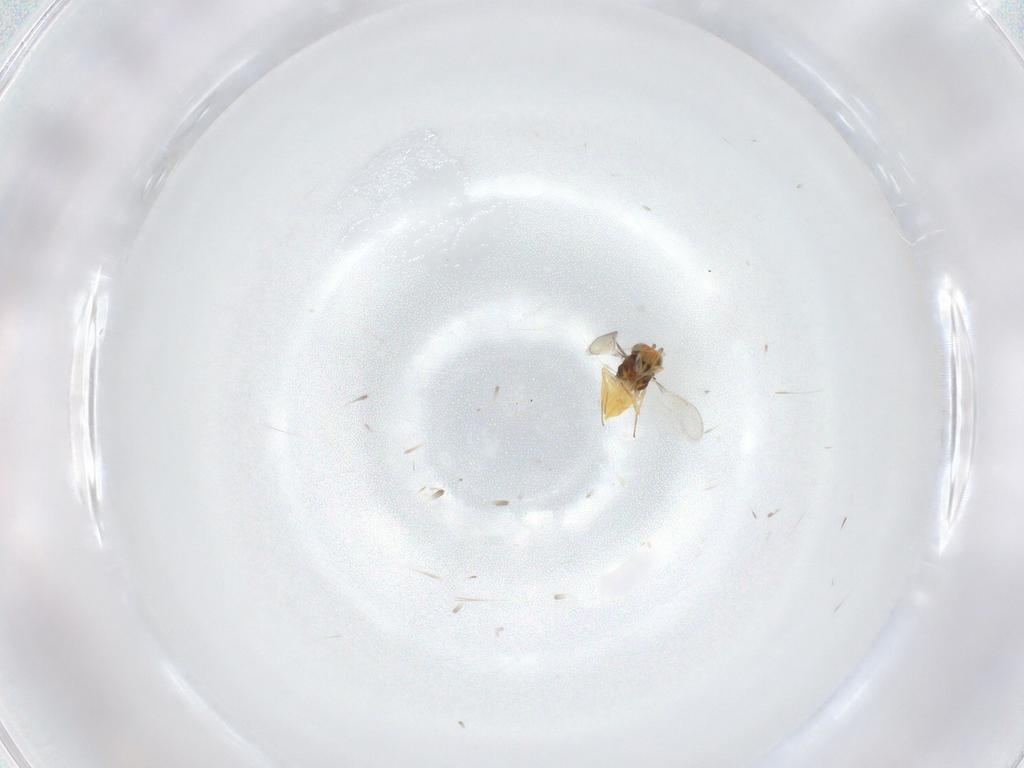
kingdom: Animalia
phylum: Arthropoda
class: Insecta
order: Hymenoptera
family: Aphelinidae
